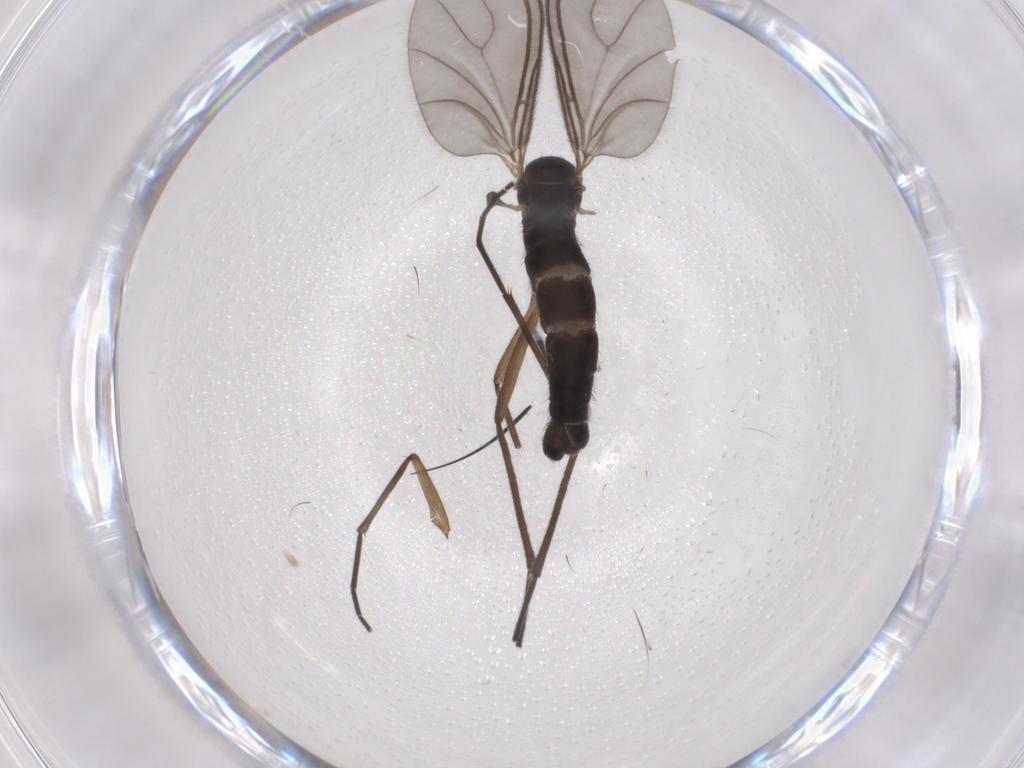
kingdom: Animalia
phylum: Arthropoda
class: Insecta
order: Diptera
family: Sciaridae
